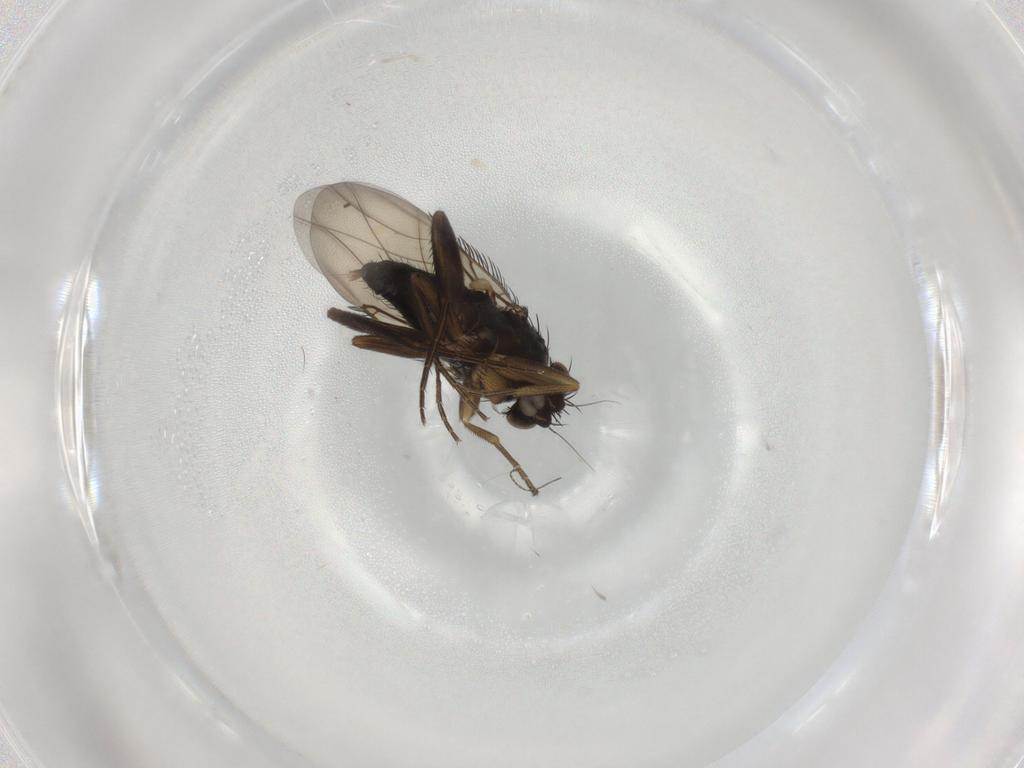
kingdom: Animalia
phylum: Arthropoda
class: Insecta
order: Diptera
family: Phoridae
